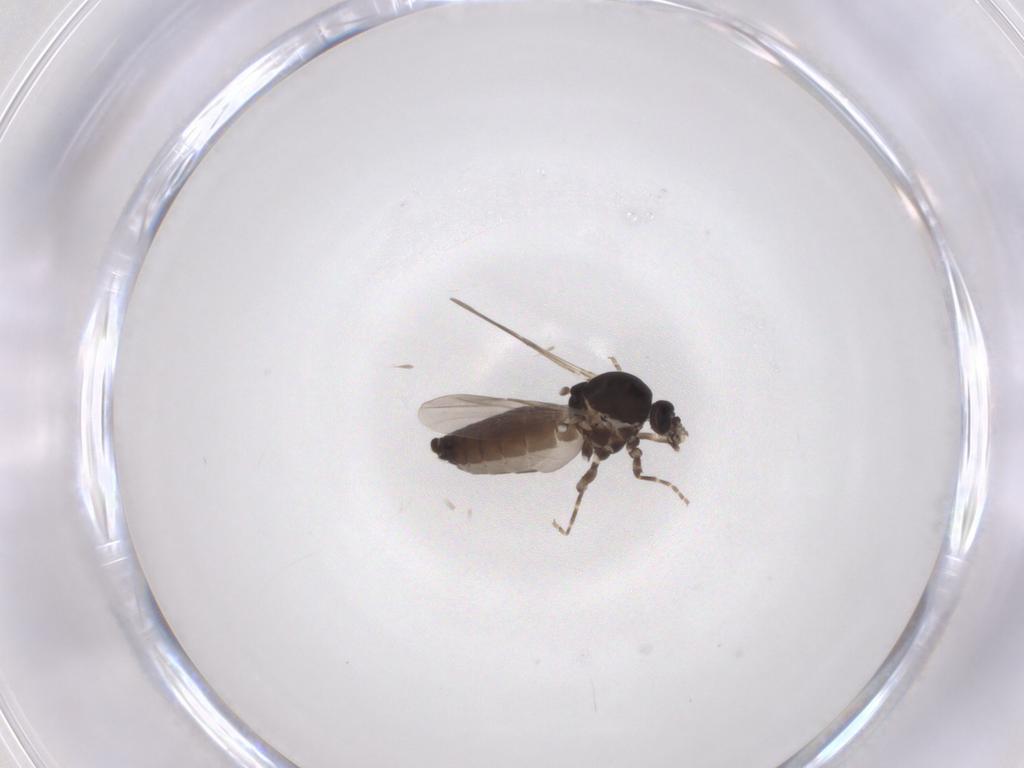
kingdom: Animalia
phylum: Arthropoda
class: Insecta
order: Diptera
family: Ceratopogonidae
